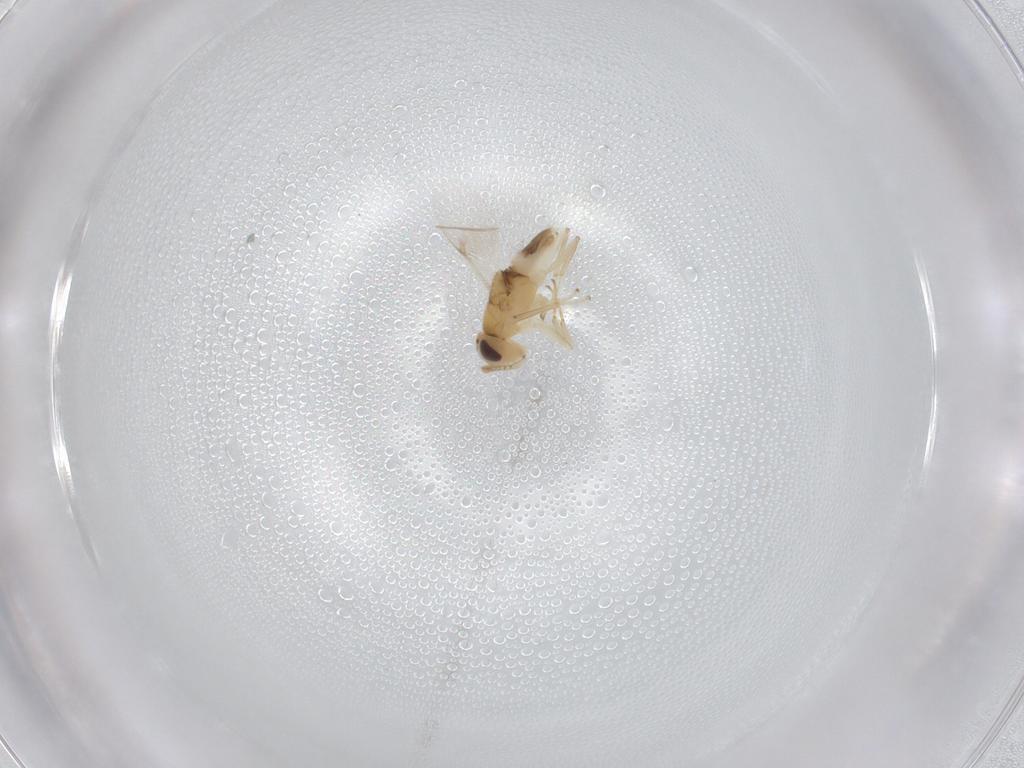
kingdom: Animalia
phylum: Arthropoda
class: Insecta
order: Hymenoptera
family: Encyrtidae
